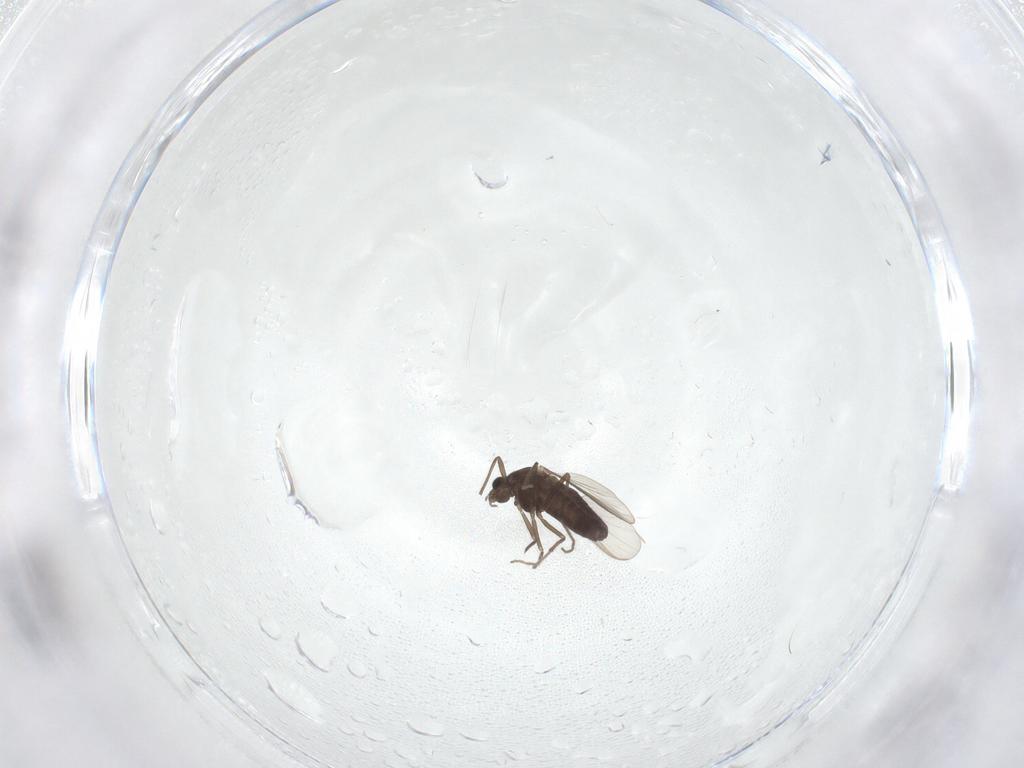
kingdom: Animalia
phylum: Arthropoda
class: Insecta
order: Diptera
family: Chironomidae
